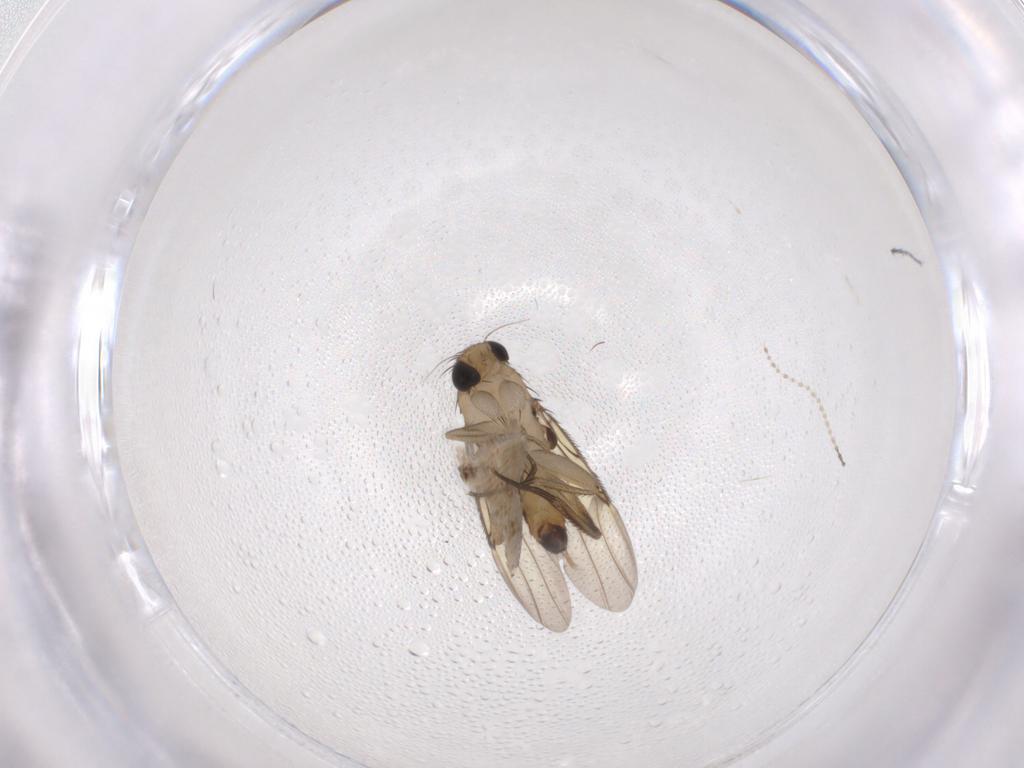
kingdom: Animalia
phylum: Arthropoda
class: Insecta
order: Diptera
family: Phoridae
